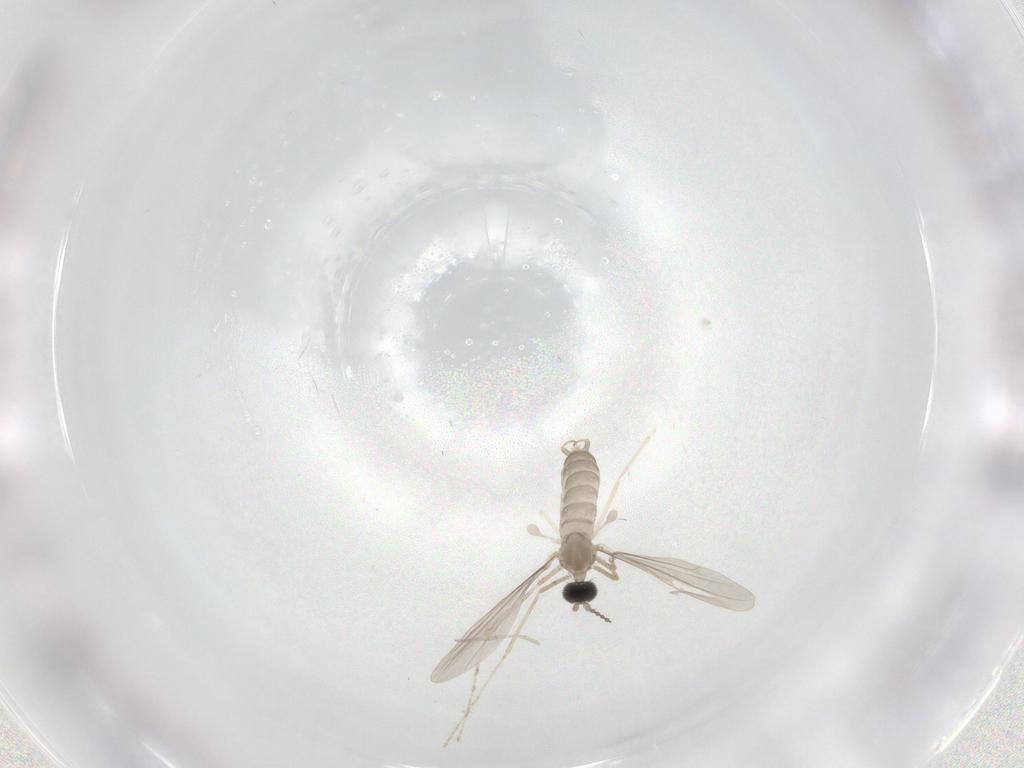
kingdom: Animalia
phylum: Arthropoda
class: Insecta
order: Diptera
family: Cecidomyiidae
